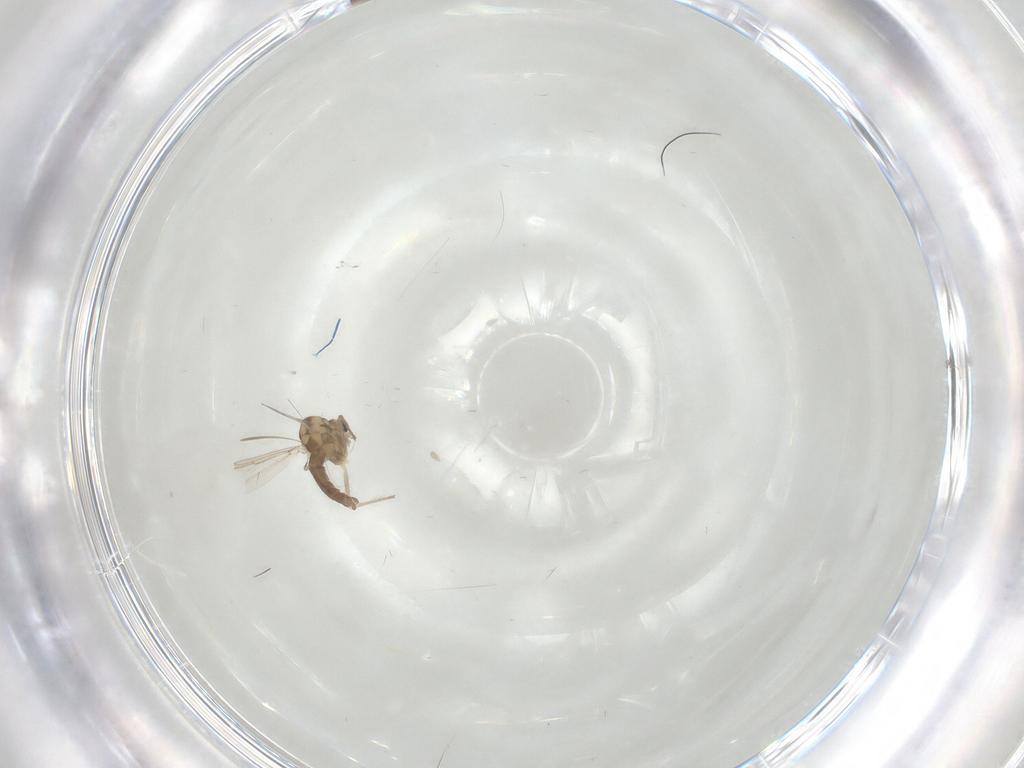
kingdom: Animalia
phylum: Arthropoda
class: Insecta
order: Diptera
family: Chironomidae
